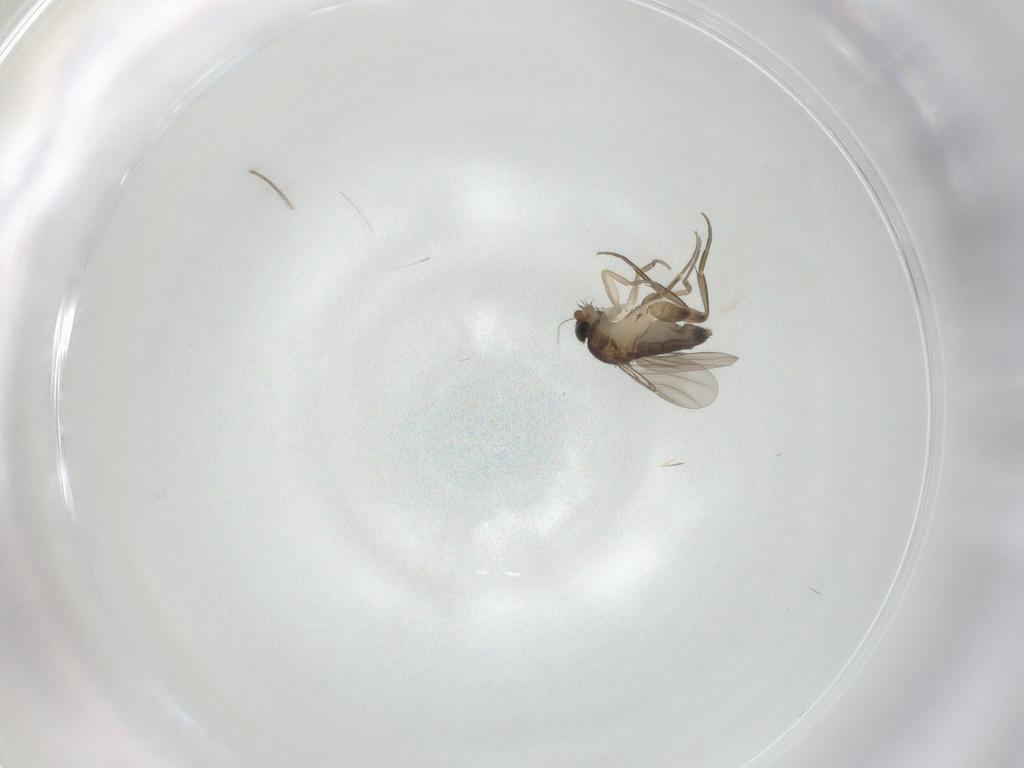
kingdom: Animalia
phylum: Arthropoda
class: Insecta
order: Diptera
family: Phoridae
